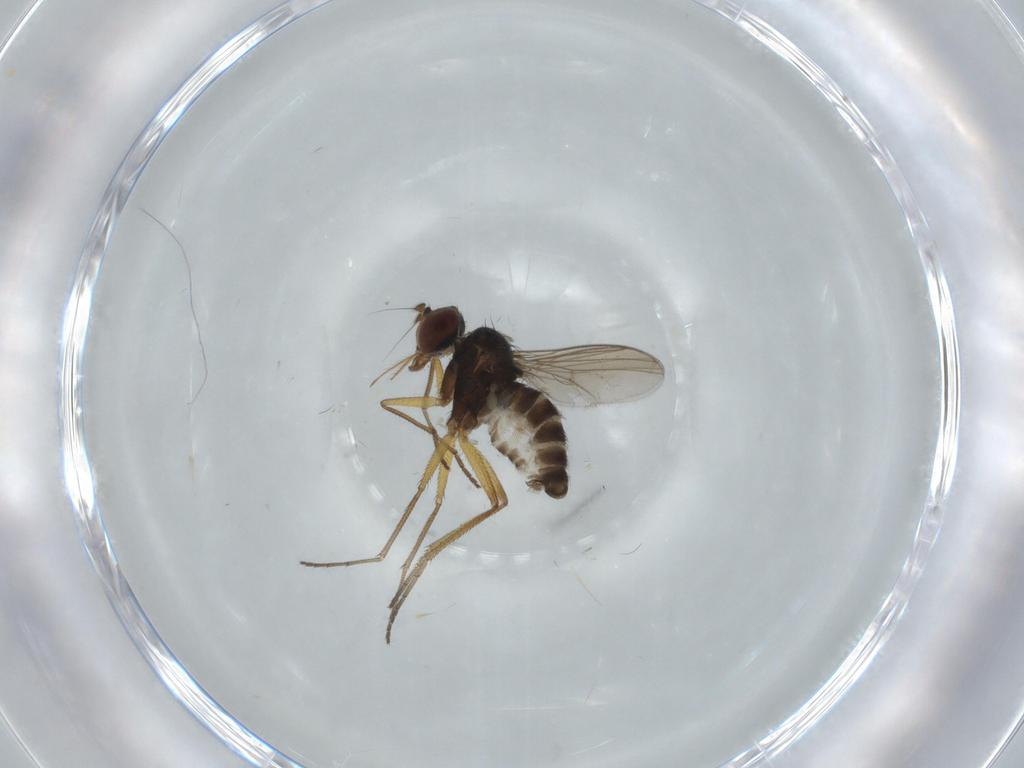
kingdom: Animalia
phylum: Arthropoda
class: Insecta
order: Diptera
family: Dolichopodidae
